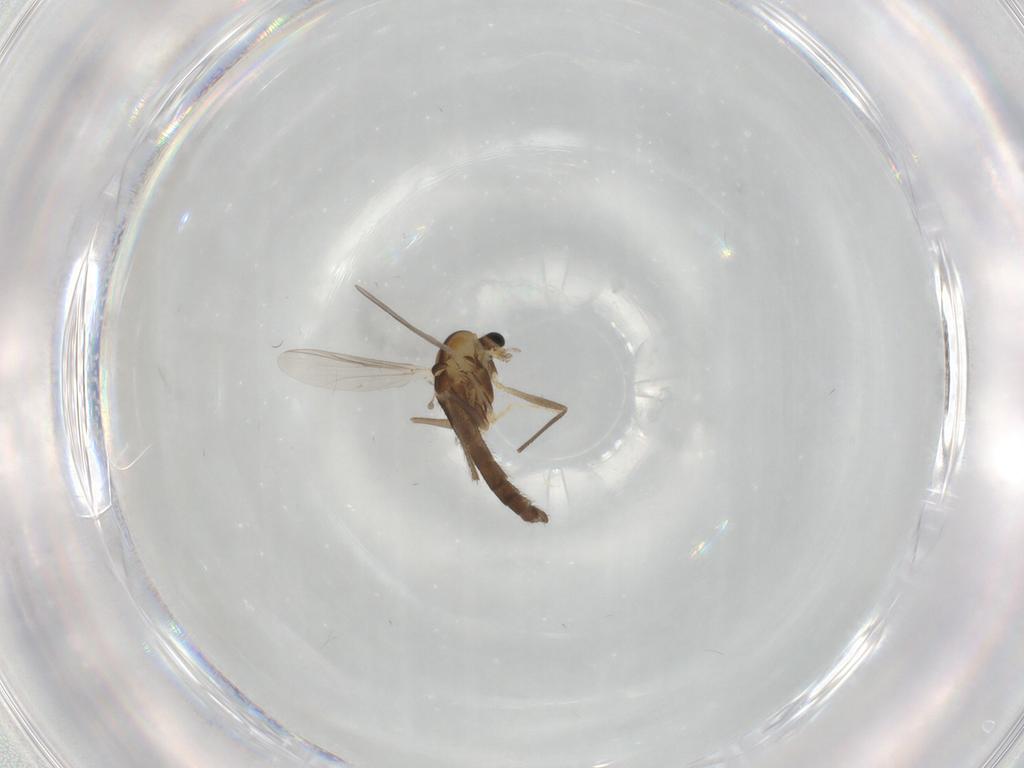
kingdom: Animalia
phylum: Arthropoda
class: Insecta
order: Diptera
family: Chironomidae
